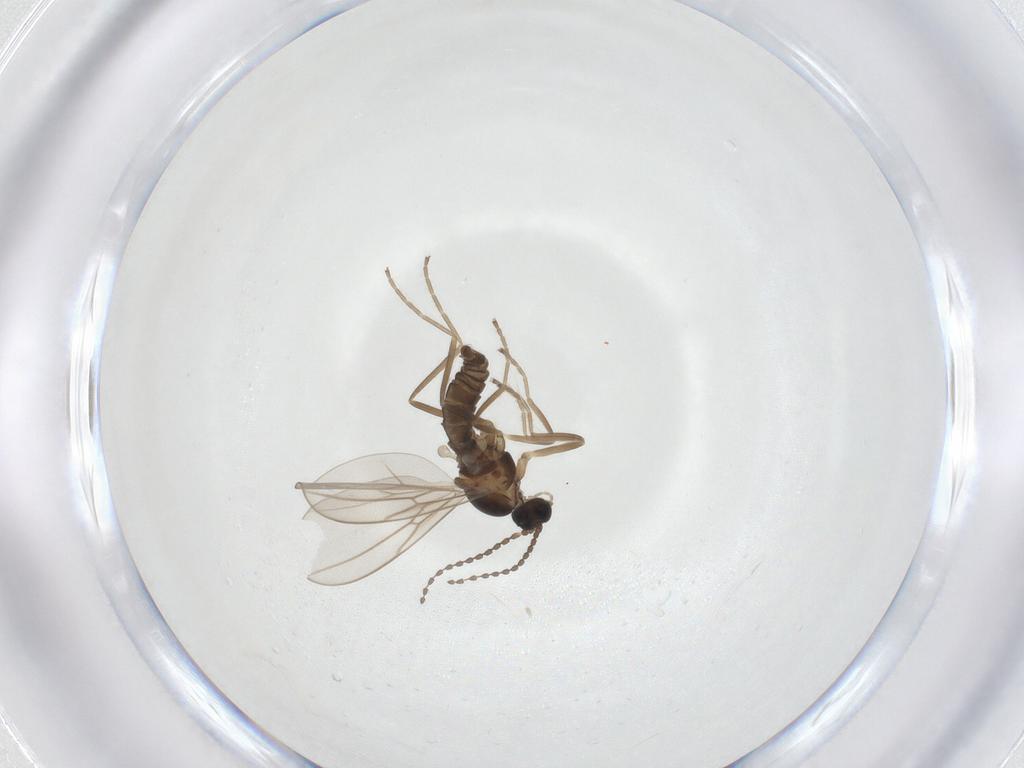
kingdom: Animalia
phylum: Arthropoda
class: Insecta
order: Diptera
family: Cecidomyiidae
